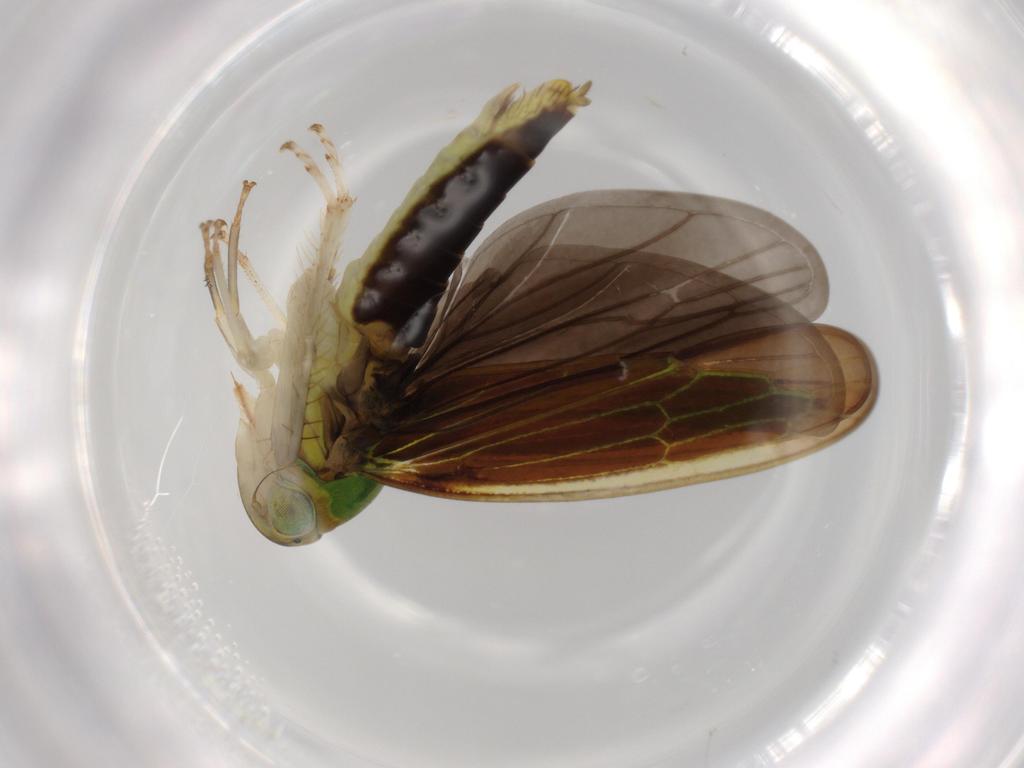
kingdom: Animalia
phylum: Arthropoda
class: Insecta
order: Hemiptera
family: Cicadellidae
